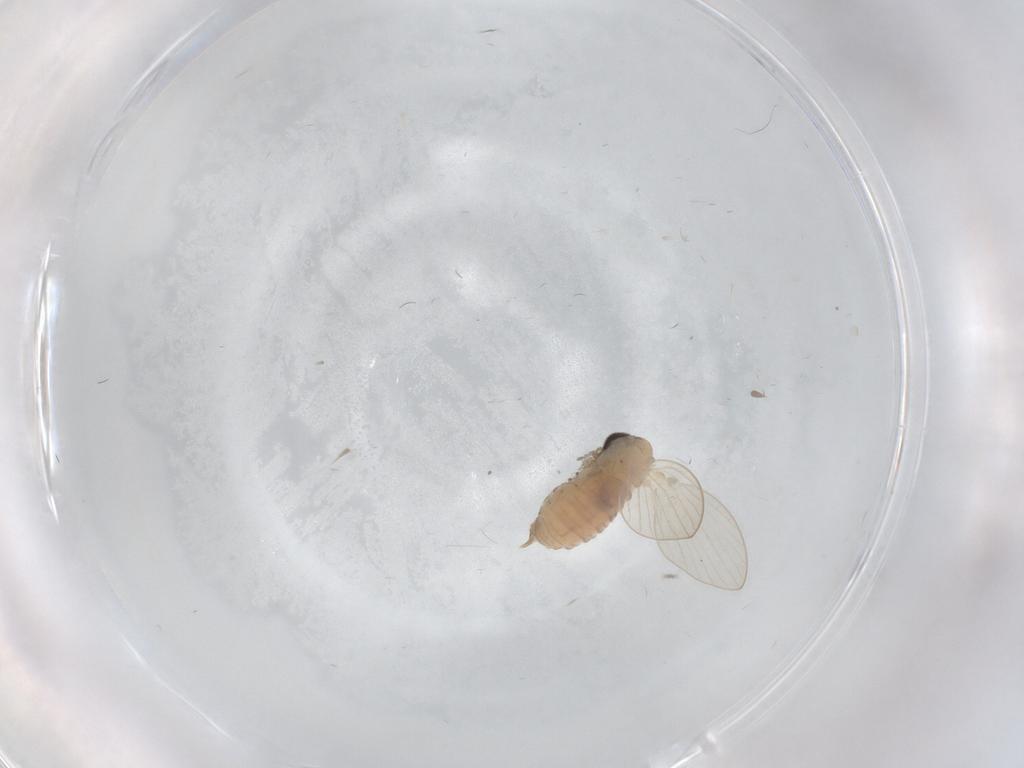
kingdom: Animalia
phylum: Arthropoda
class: Insecta
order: Diptera
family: Psychodidae
